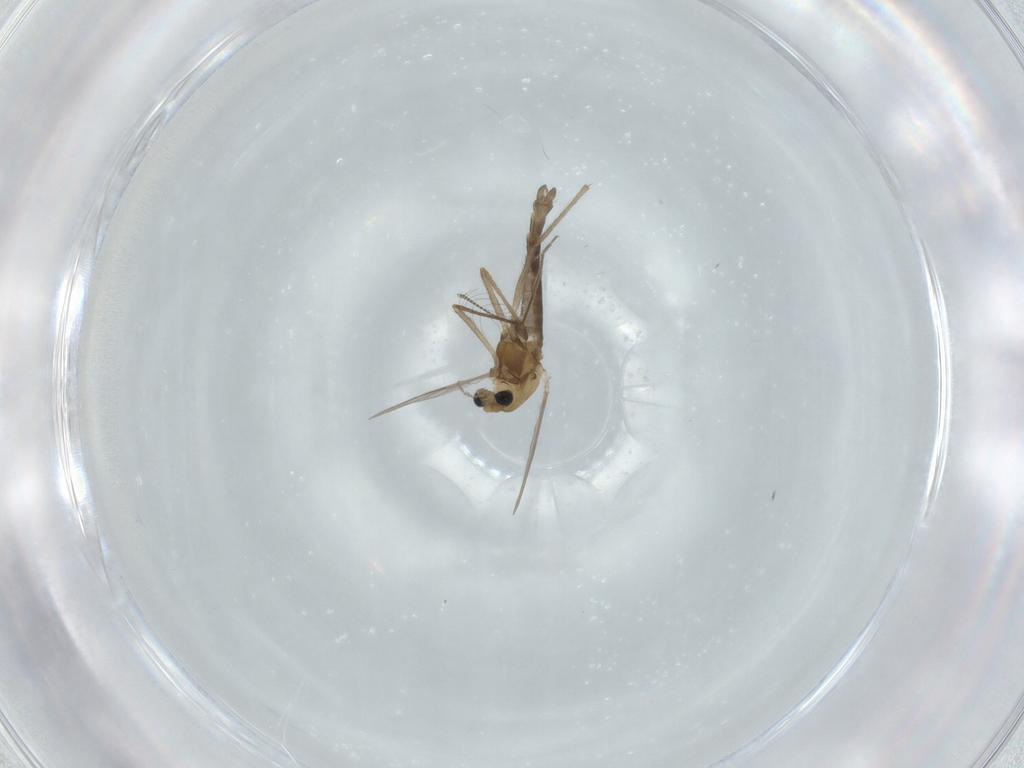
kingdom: Animalia
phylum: Arthropoda
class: Insecta
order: Diptera
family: Chironomidae
